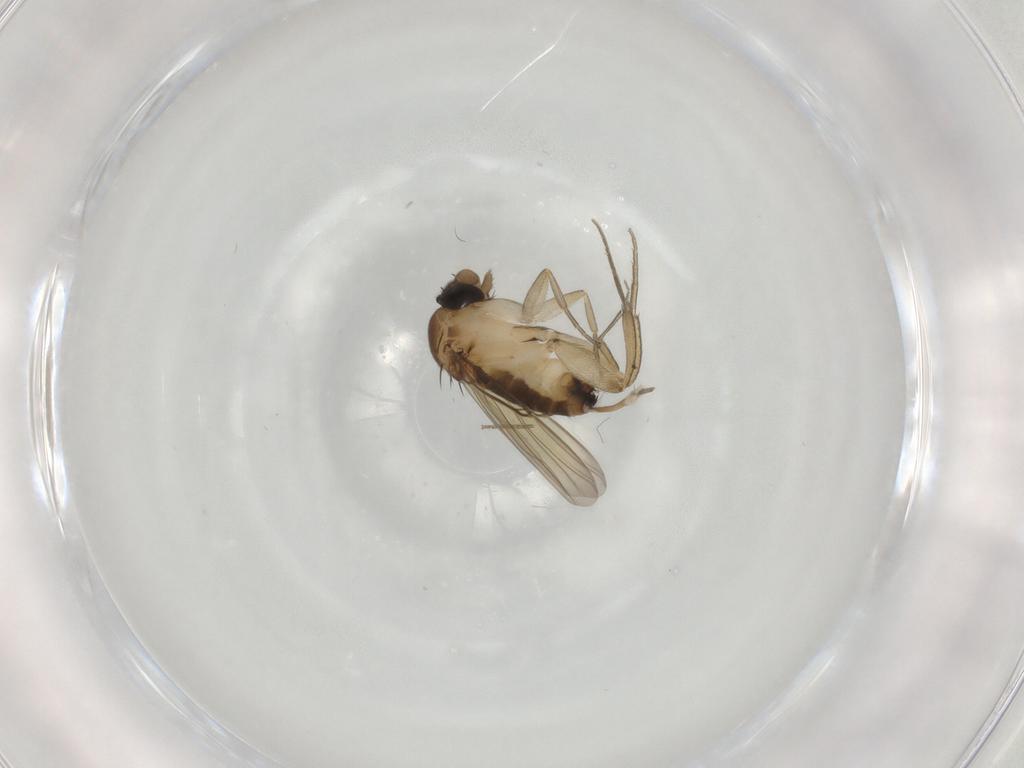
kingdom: Animalia
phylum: Arthropoda
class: Insecta
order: Diptera
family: Phoridae
